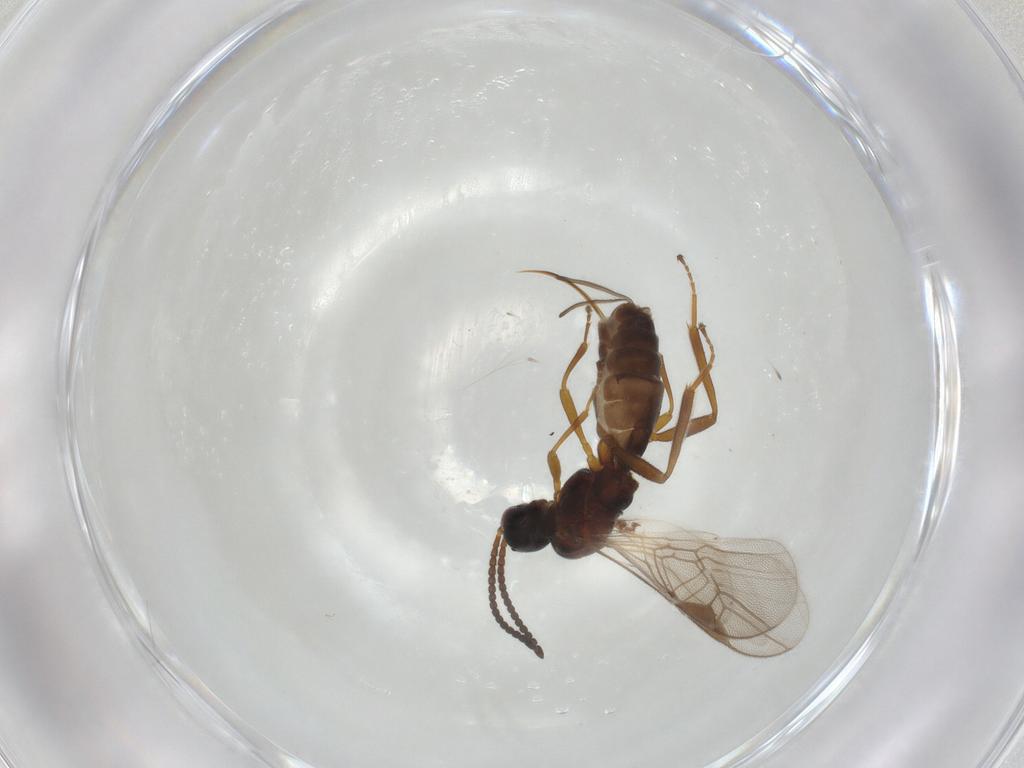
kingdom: Animalia
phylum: Arthropoda
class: Insecta
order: Hymenoptera
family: Braconidae
